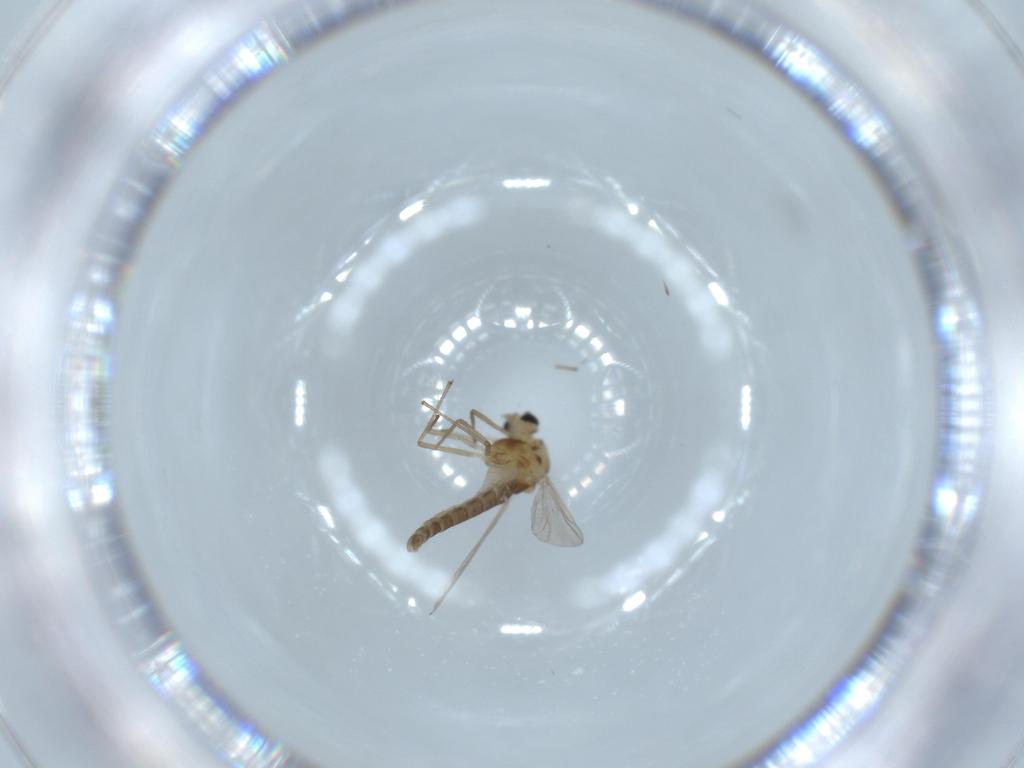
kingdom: Animalia
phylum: Arthropoda
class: Insecta
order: Diptera
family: Chironomidae
